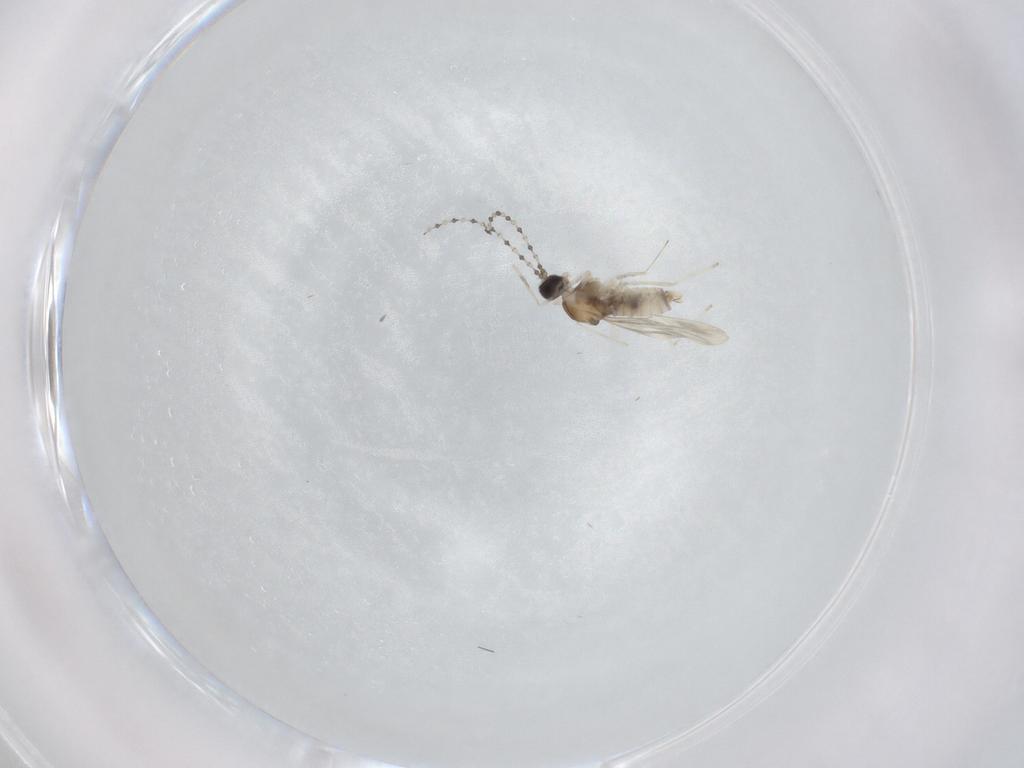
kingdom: Animalia
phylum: Arthropoda
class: Insecta
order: Diptera
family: Cecidomyiidae
